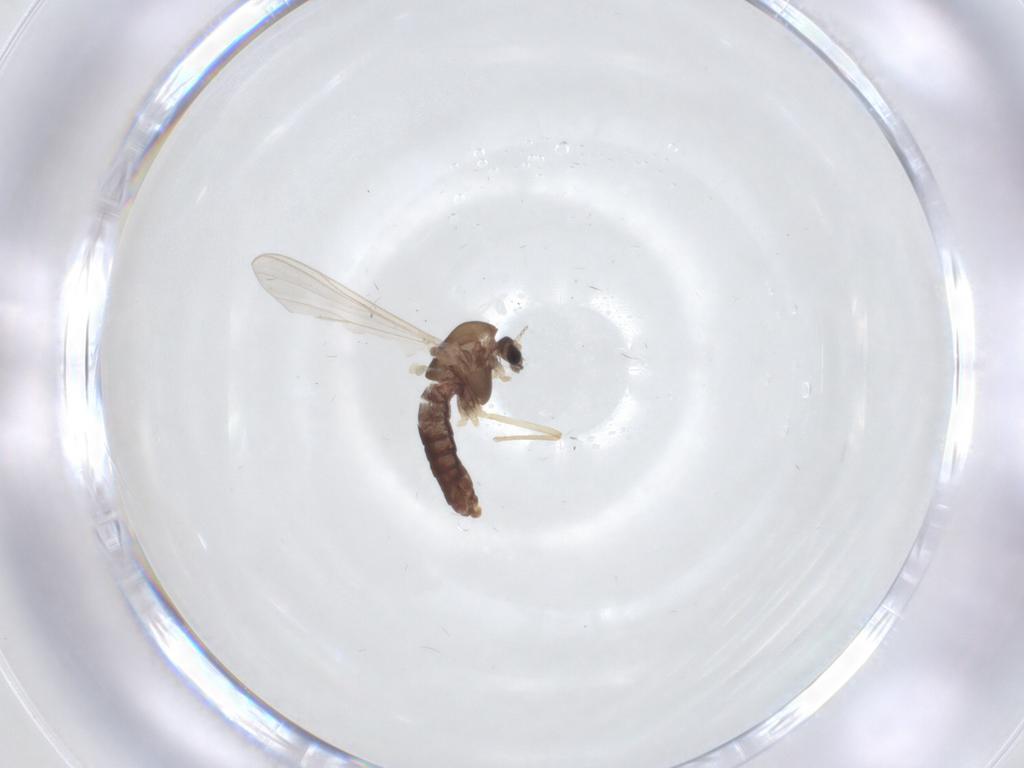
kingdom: Animalia
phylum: Arthropoda
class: Insecta
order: Diptera
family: Chironomidae
